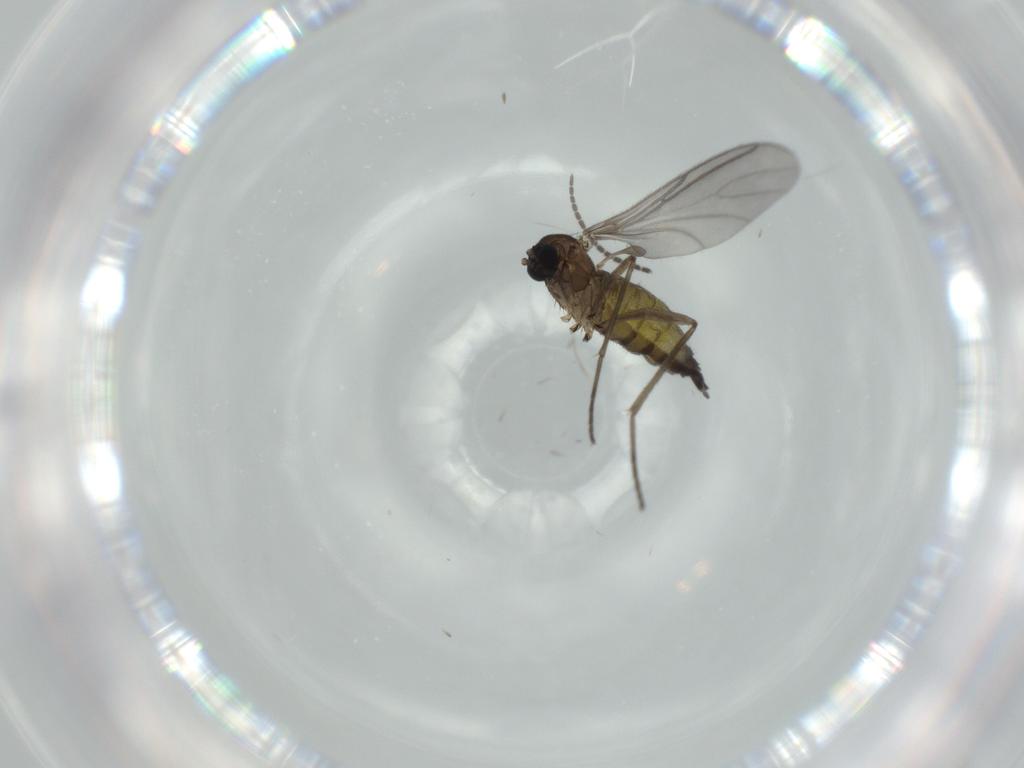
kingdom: Animalia
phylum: Arthropoda
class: Insecta
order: Diptera
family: Sciaridae
